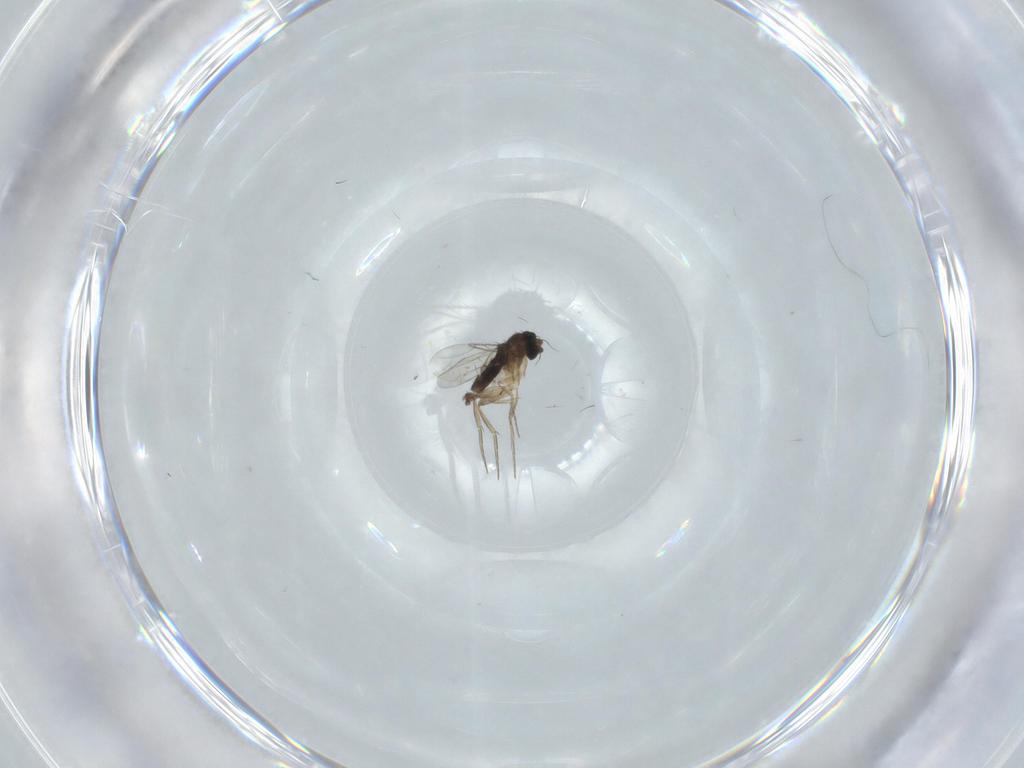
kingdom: Animalia
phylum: Arthropoda
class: Insecta
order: Diptera
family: Phoridae
